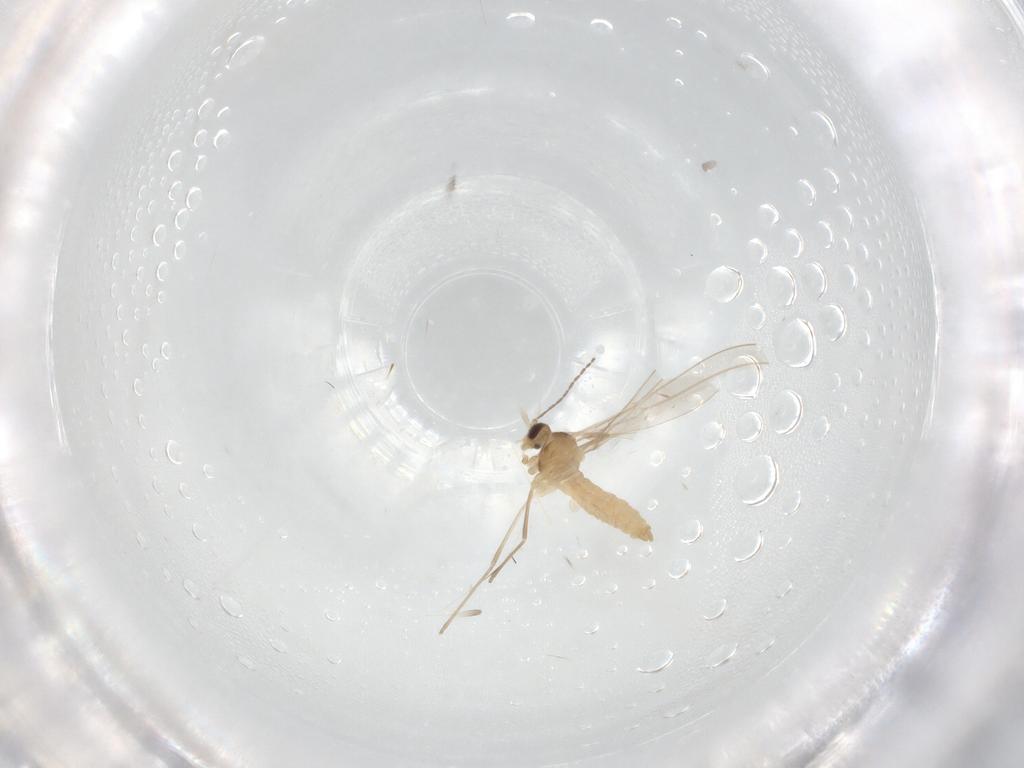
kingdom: Animalia
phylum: Arthropoda
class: Insecta
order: Diptera
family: Cecidomyiidae
